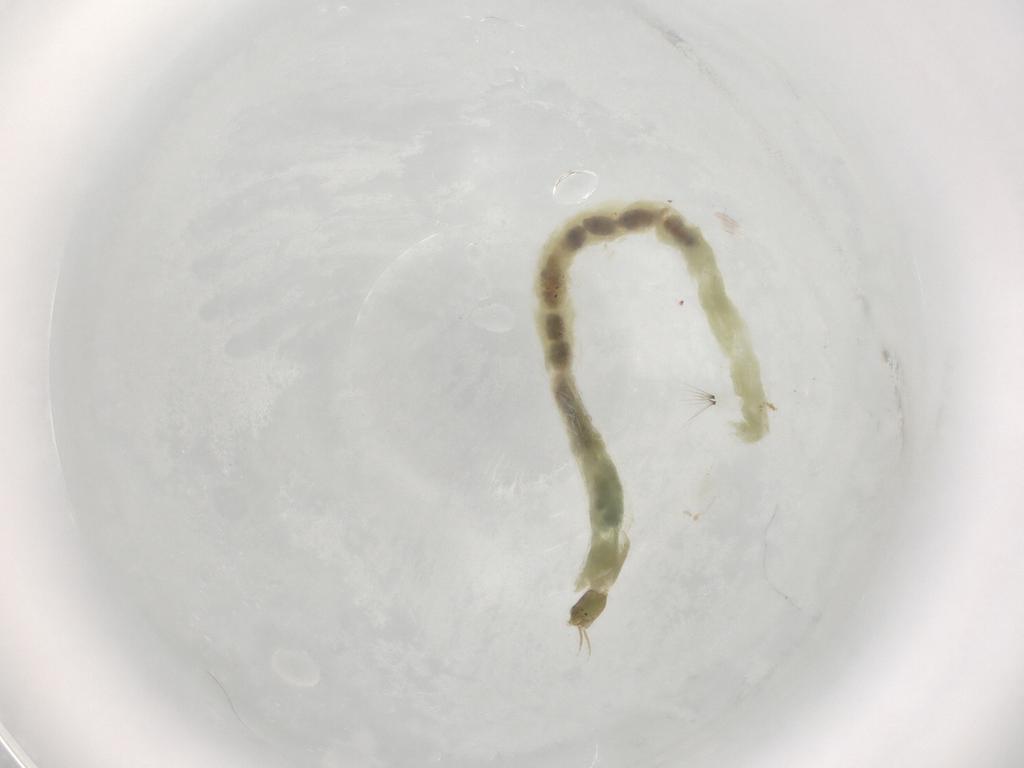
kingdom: Animalia
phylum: Arthropoda
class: Insecta
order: Diptera
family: Chironomidae
